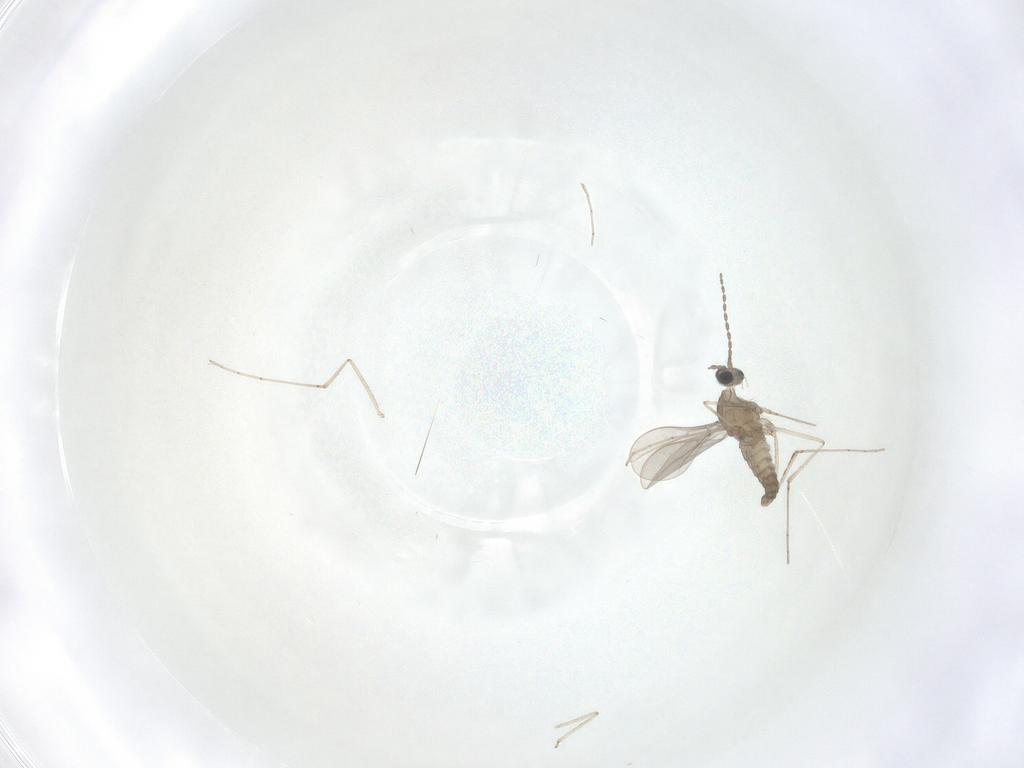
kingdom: Animalia
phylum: Arthropoda
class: Insecta
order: Diptera
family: Cecidomyiidae
